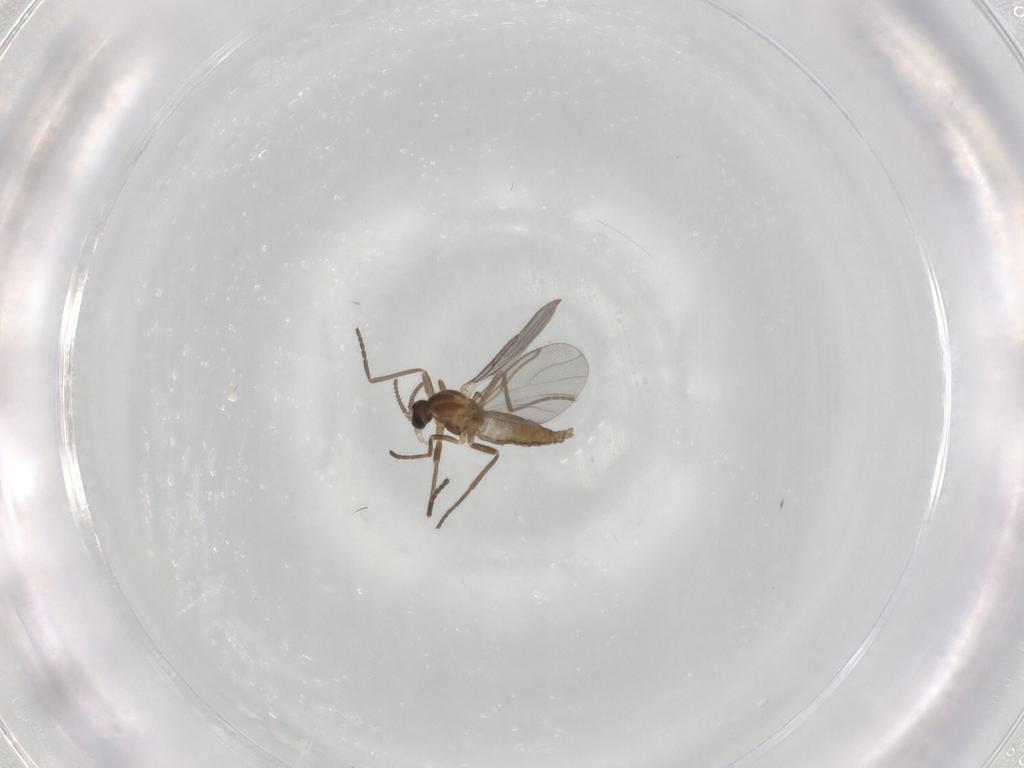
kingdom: Animalia
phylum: Arthropoda
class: Insecta
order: Diptera
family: Cecidomyiidae
